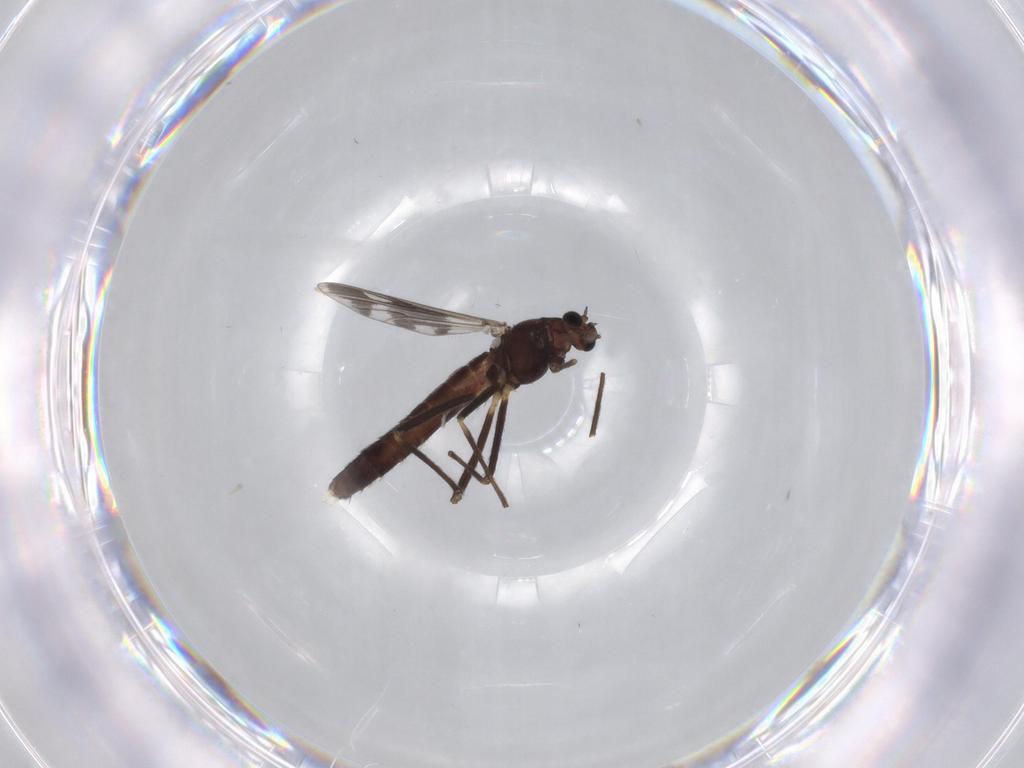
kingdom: Animalia
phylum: Arthropoda
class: Insecta
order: Diptera
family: Chironomidae
